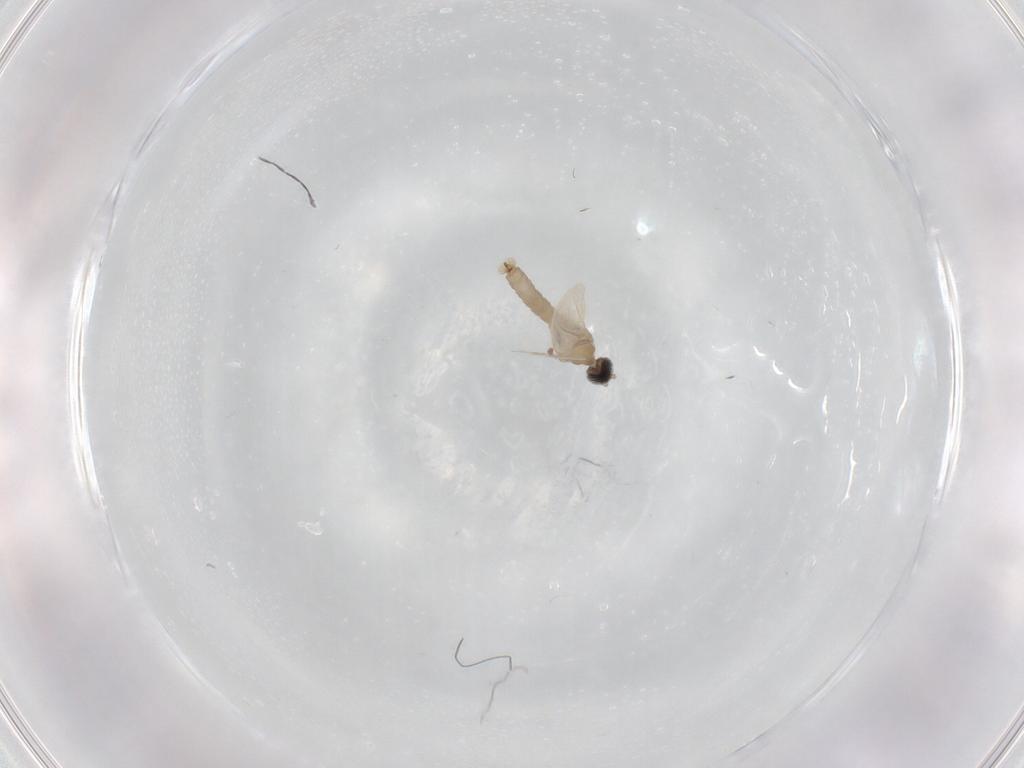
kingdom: Animalia
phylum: Arthropoda
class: Insecta
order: Diptera
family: Cecidomyiidae
